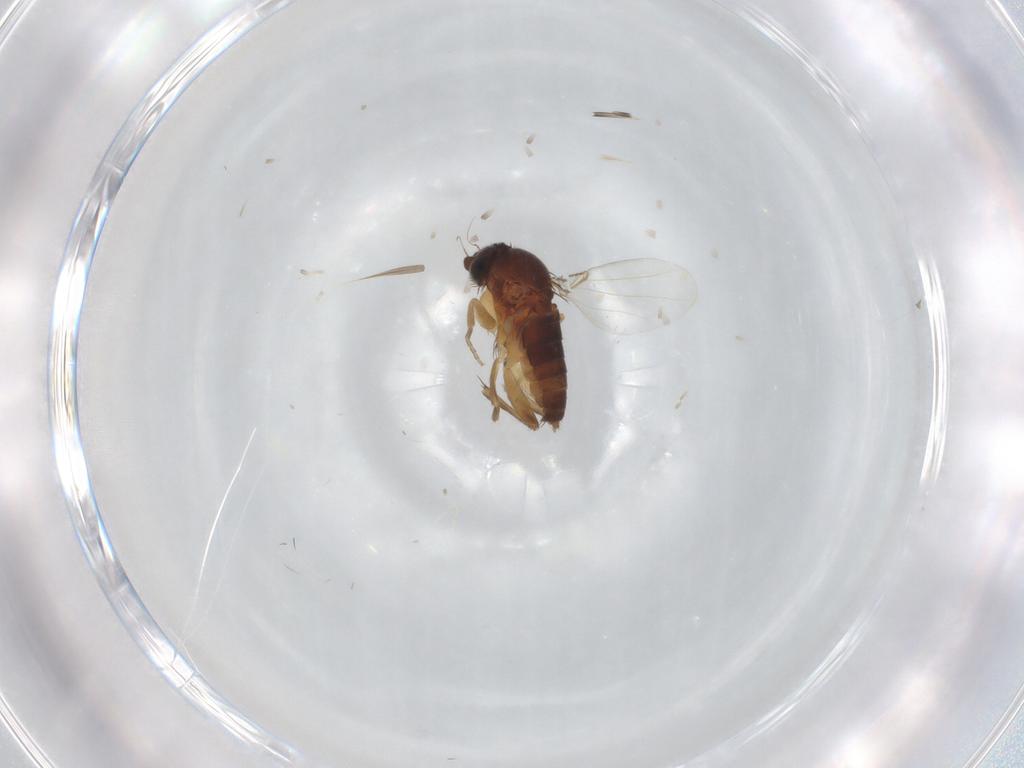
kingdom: Animalia
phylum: Arthropoda
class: Insecta
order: Diptera
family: Phoridae
